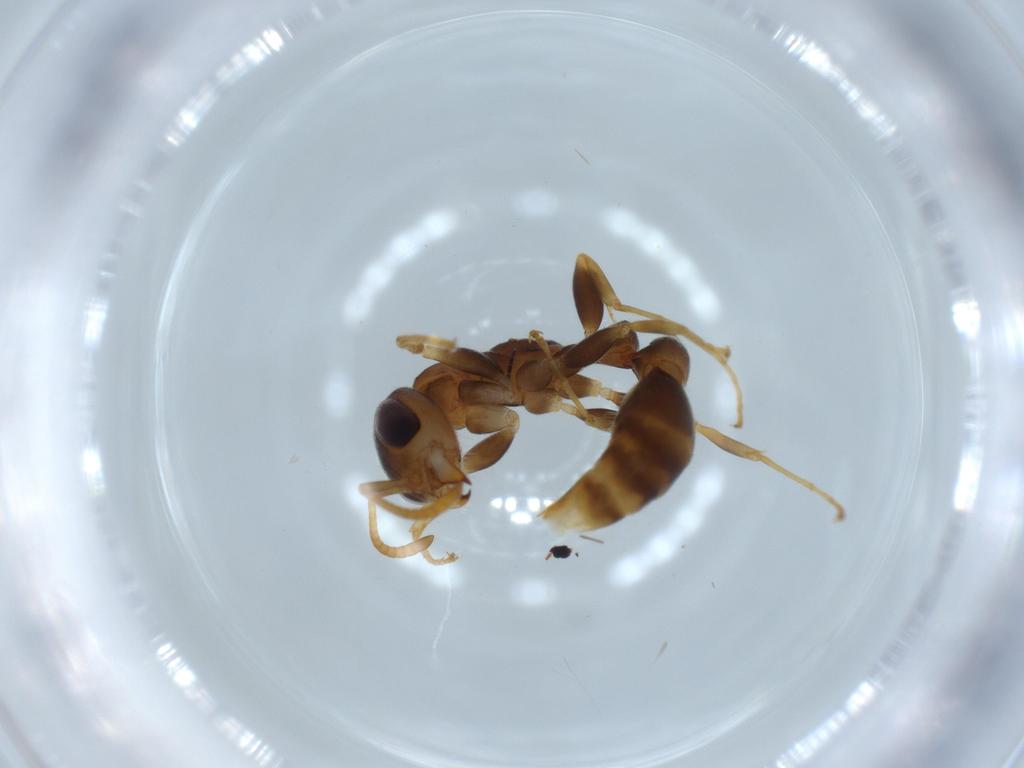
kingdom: Animalia
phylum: Arthropoda
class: Insecta
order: Hymenoptera
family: Formicidae
